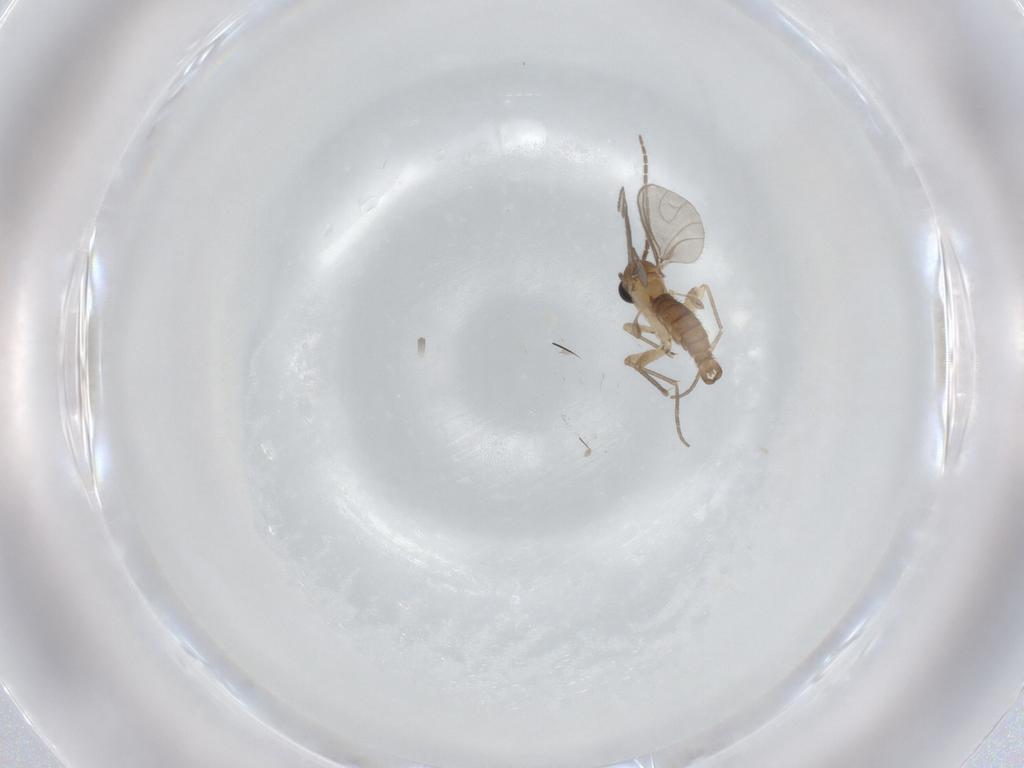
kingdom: Animalia
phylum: Arthropoda
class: Insecta
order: Diptera
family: Sciaridae
